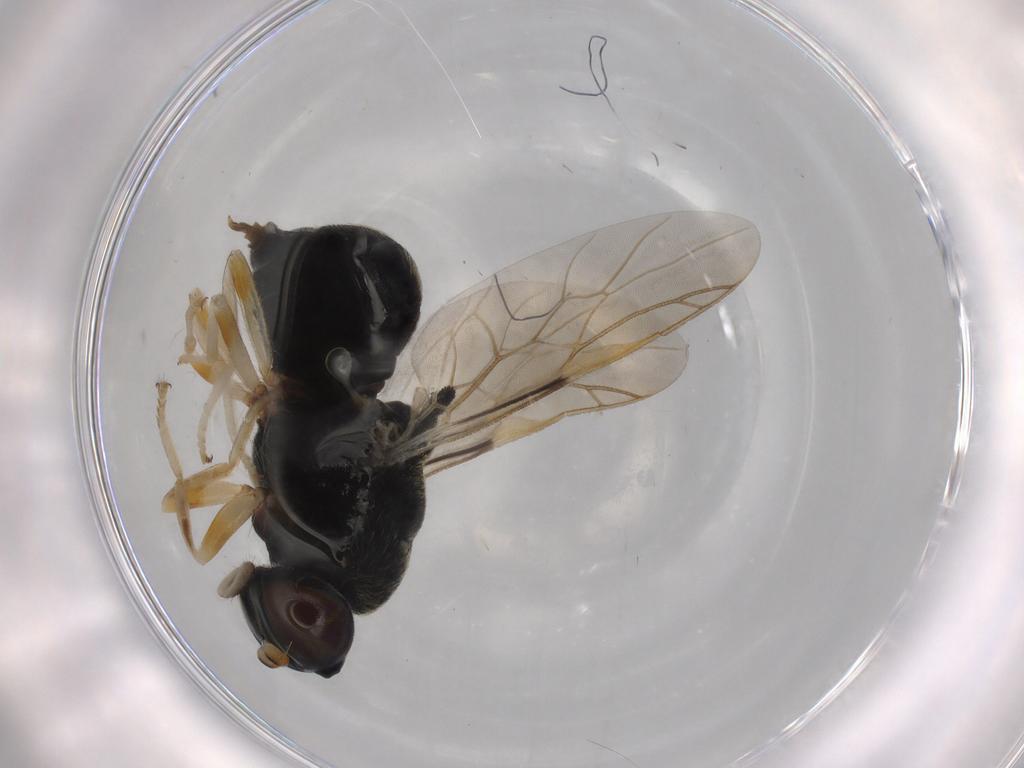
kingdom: Animalia
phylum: Arthropoda
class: Insecta
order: Diptera
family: Stratiomyidae
